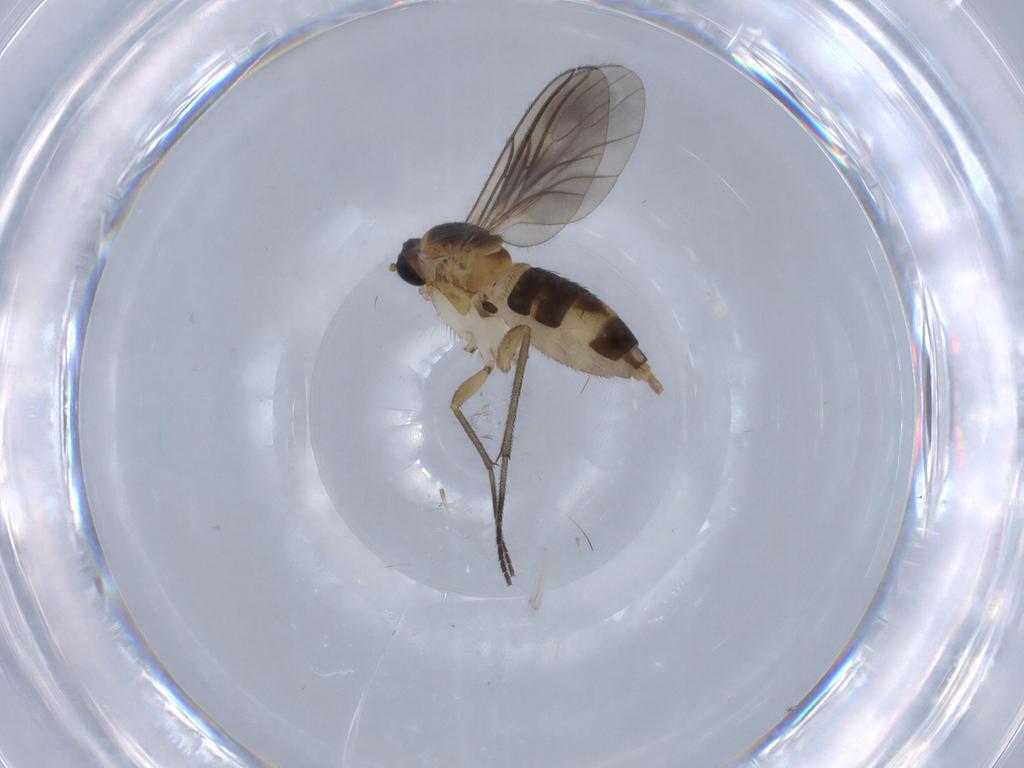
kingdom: Animalia
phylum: Arthropoda
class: Insecta
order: Diptera
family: Sciaridae
